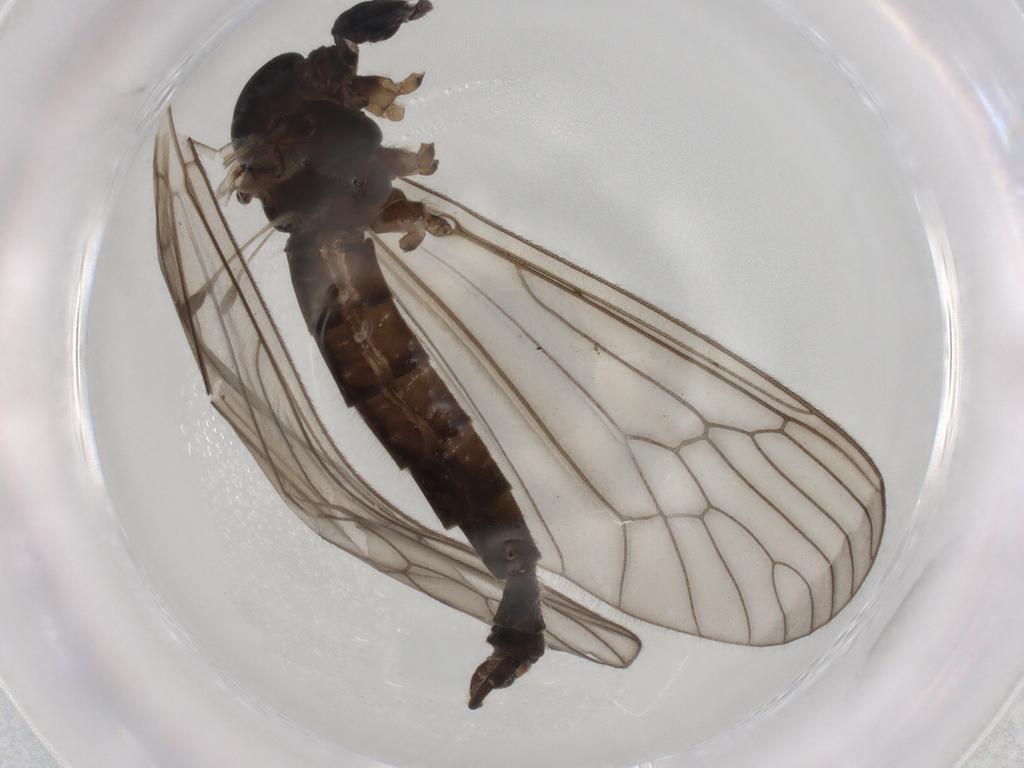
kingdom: Animalia
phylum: Arthropoda
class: Insecta
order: Diptera
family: Trichoceridae
